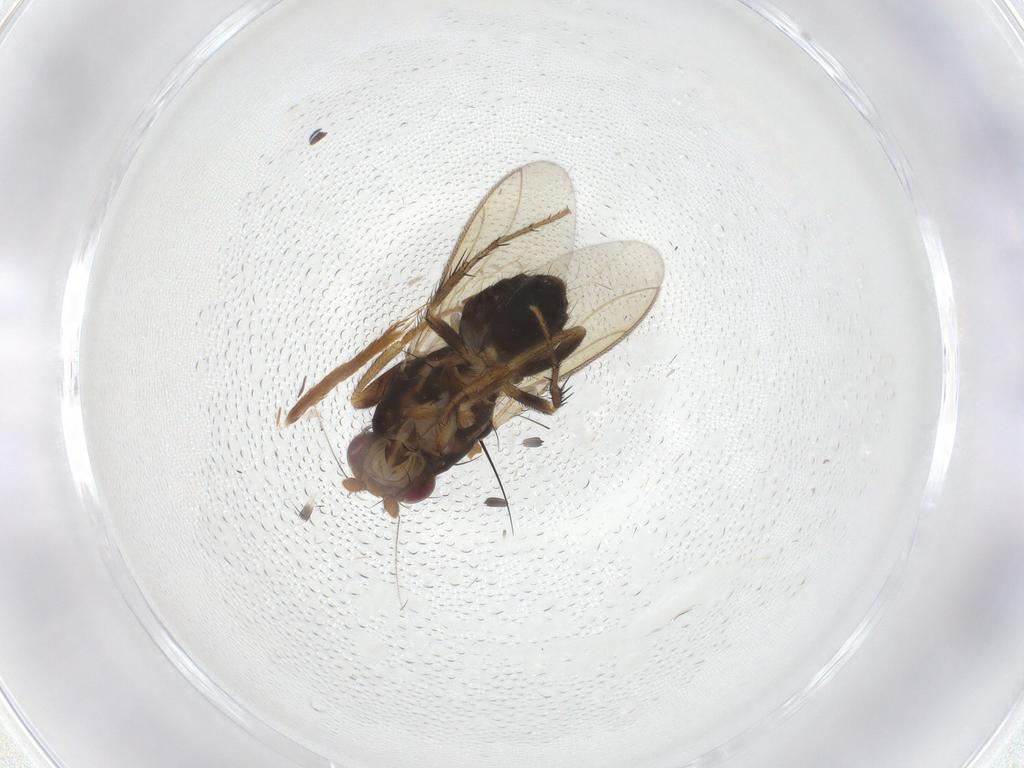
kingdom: Animalia
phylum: Arthropoda
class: Insecta
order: Diptera
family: Sphaeroceridae
